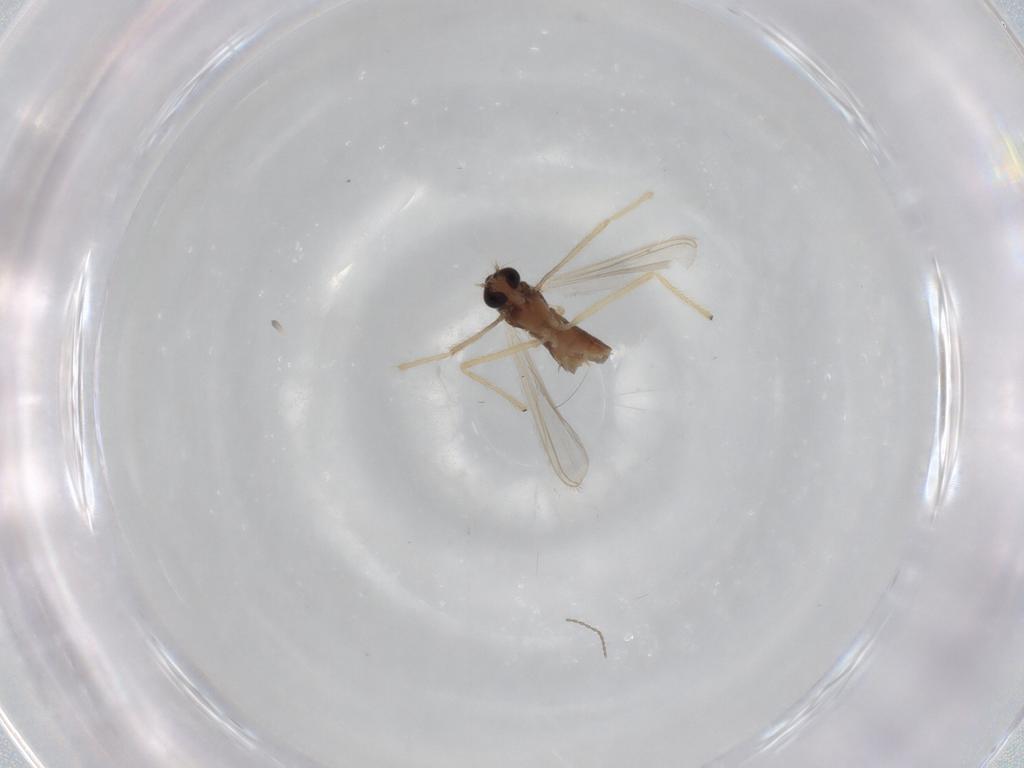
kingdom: Animalia
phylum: Arthropoda
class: Insecta
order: Diptera
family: Chironomidae
